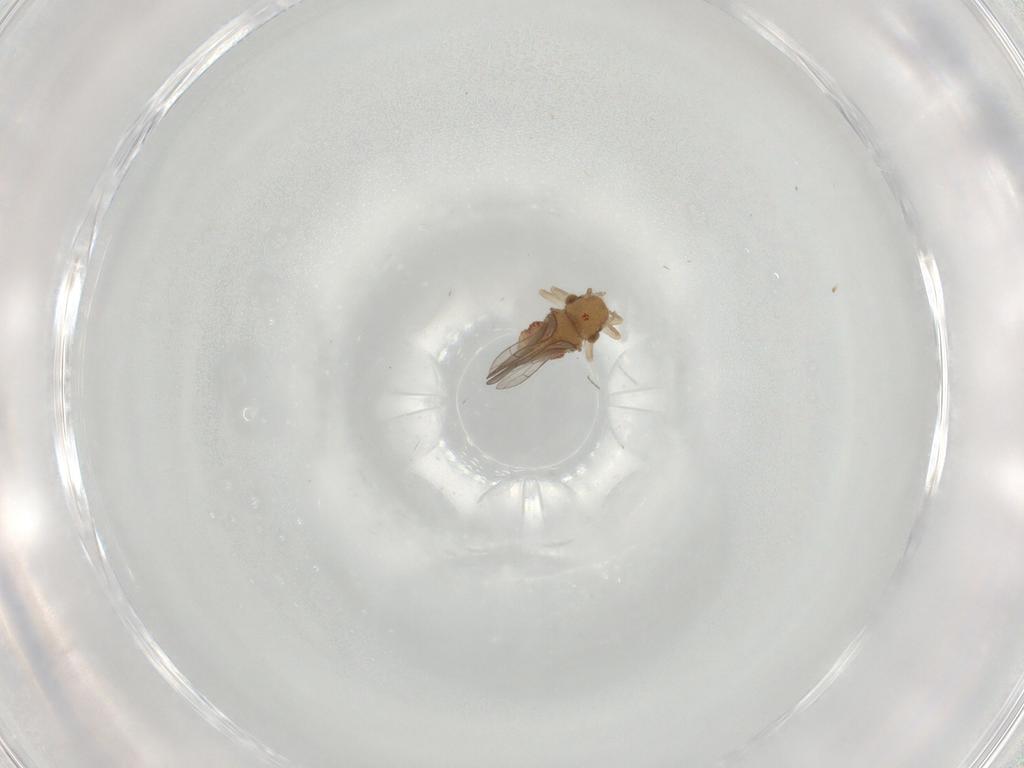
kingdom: Animalia
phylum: Arthropoda
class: Insecta
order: Psocodea
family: Ectopsocidae
